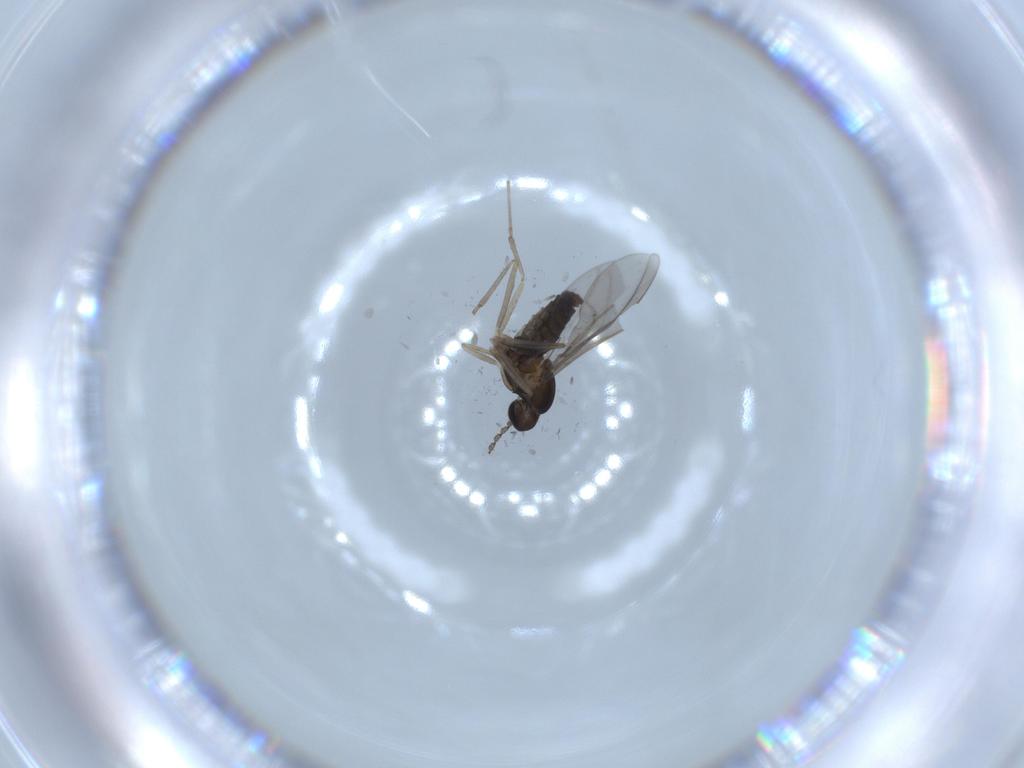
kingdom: Animalia
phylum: Arthropoda
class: Insecta
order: Diptera
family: Cecidomyiidae
